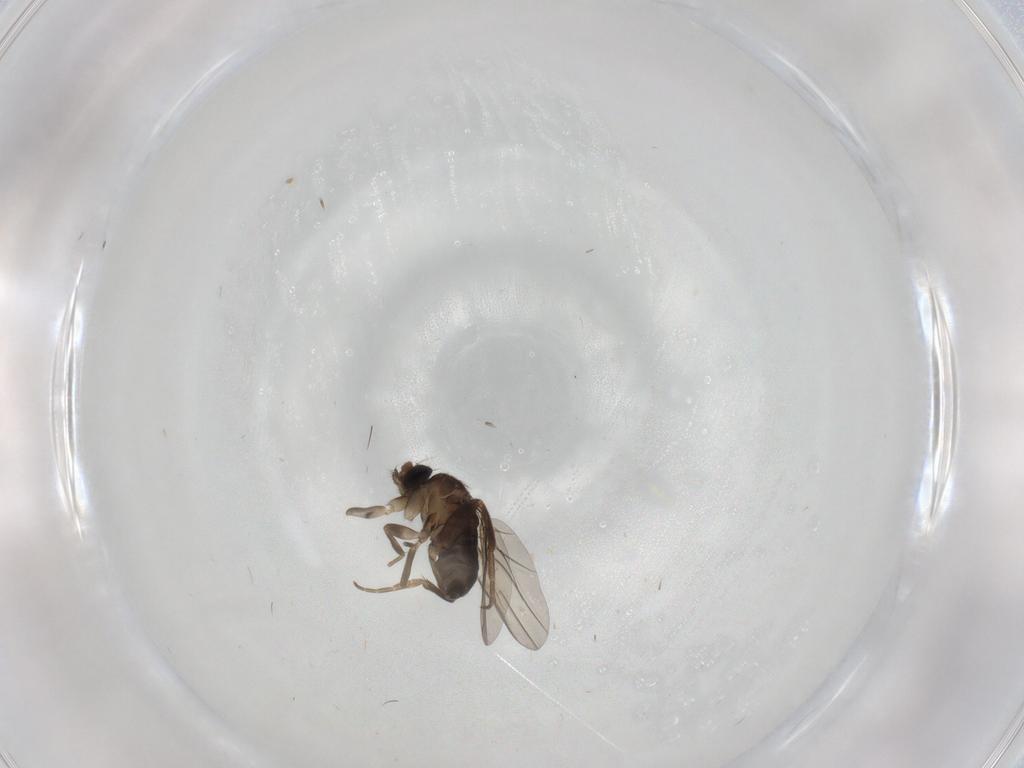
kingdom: Animalia
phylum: Arthropoda
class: Insecta
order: Diptera
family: Phoridae
